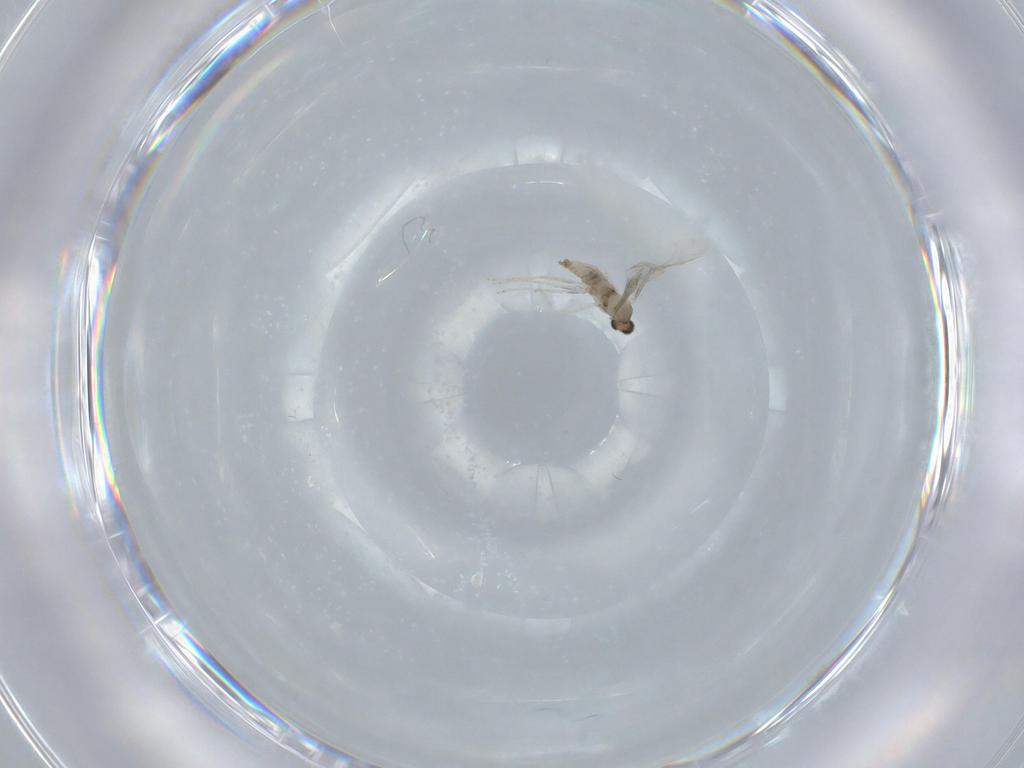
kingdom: Animalia
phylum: Arthropoda
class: Insecta
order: Diptera
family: Cecidomyiidae
